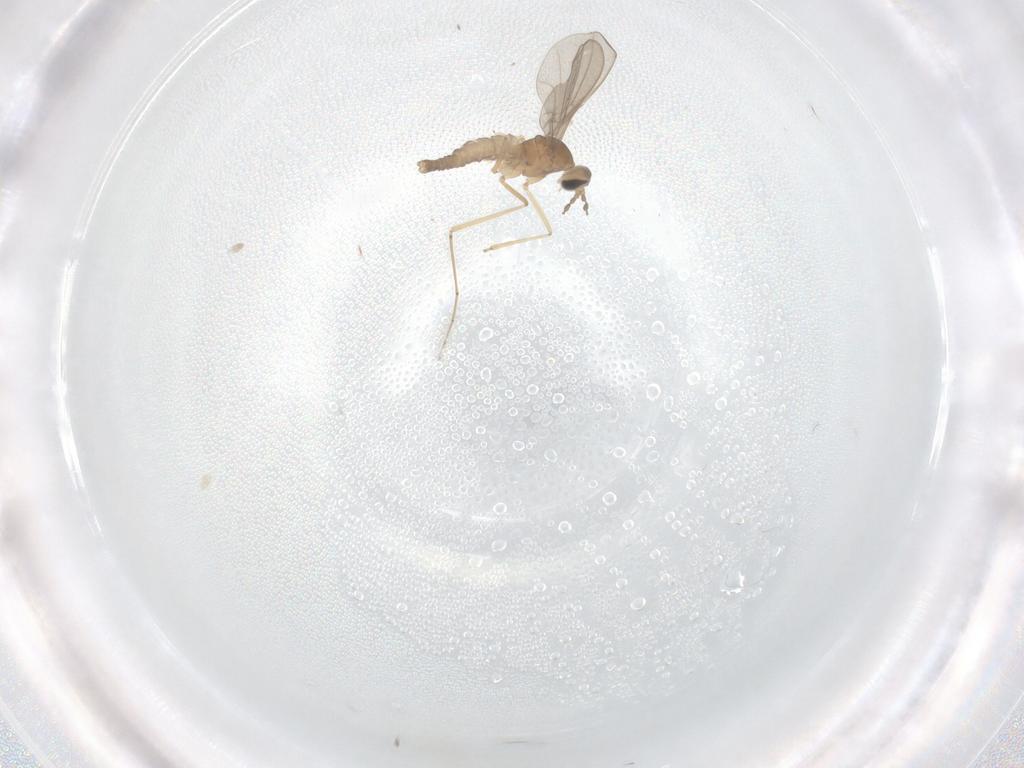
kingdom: Animalia
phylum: Arthropoda
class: Insecta
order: Diptera
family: Cecidomyiidae
